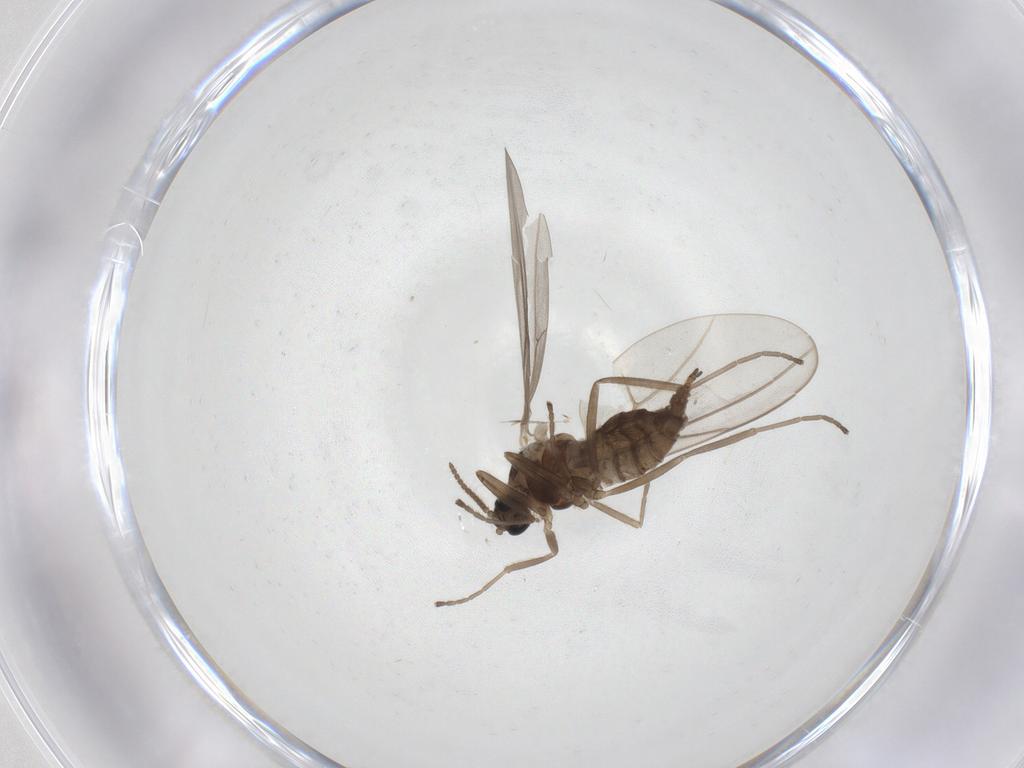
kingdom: Animalia
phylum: Arthropoda
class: Insecta
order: Diptera
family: Cecidomyiidae
